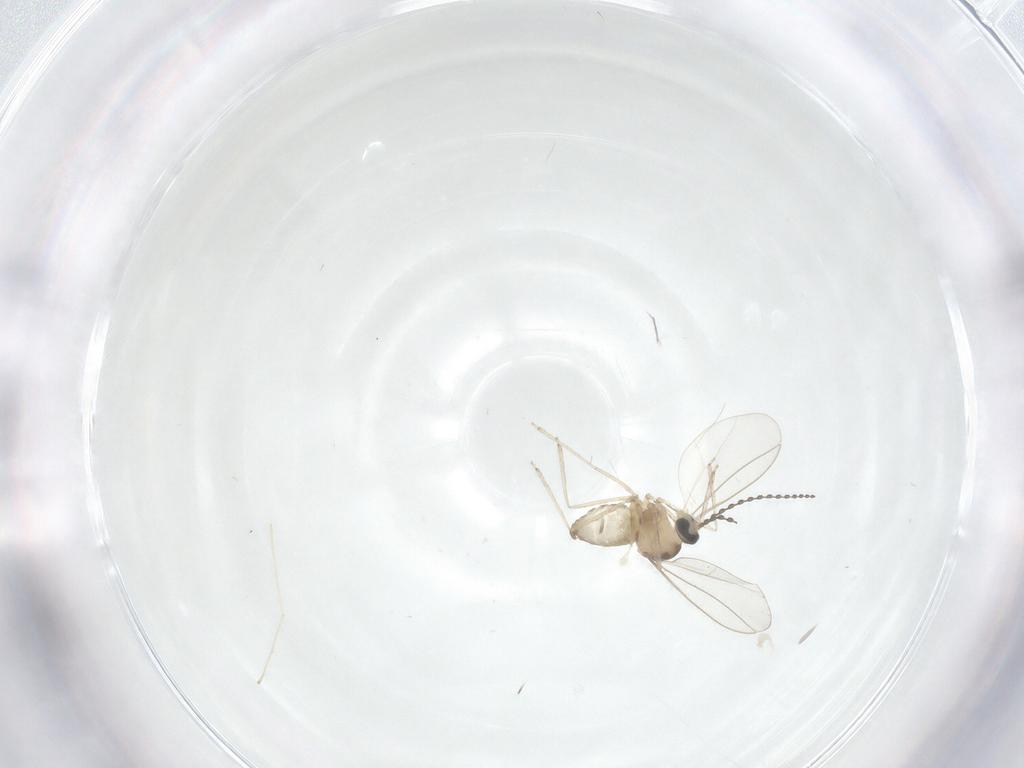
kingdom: Animalia
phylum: Arthropoda
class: Insecta
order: Diptera
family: Cecidomyiidae
